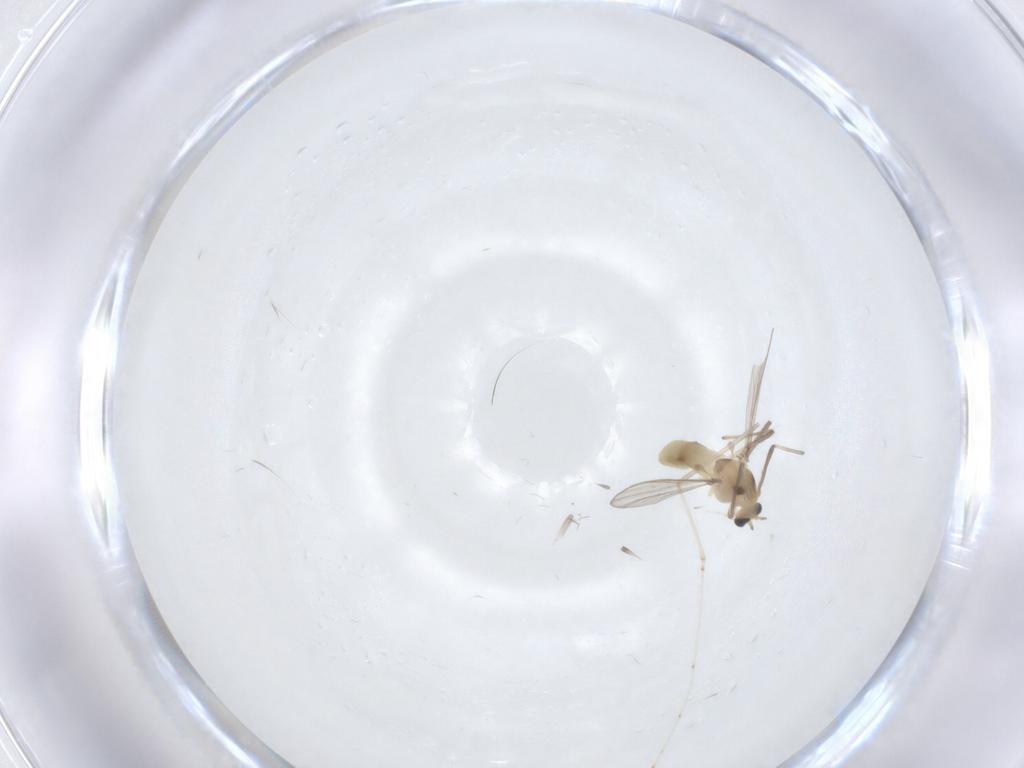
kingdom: Animalia
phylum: Arthropoda
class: Insecta
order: Diptera
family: Chironomidae
